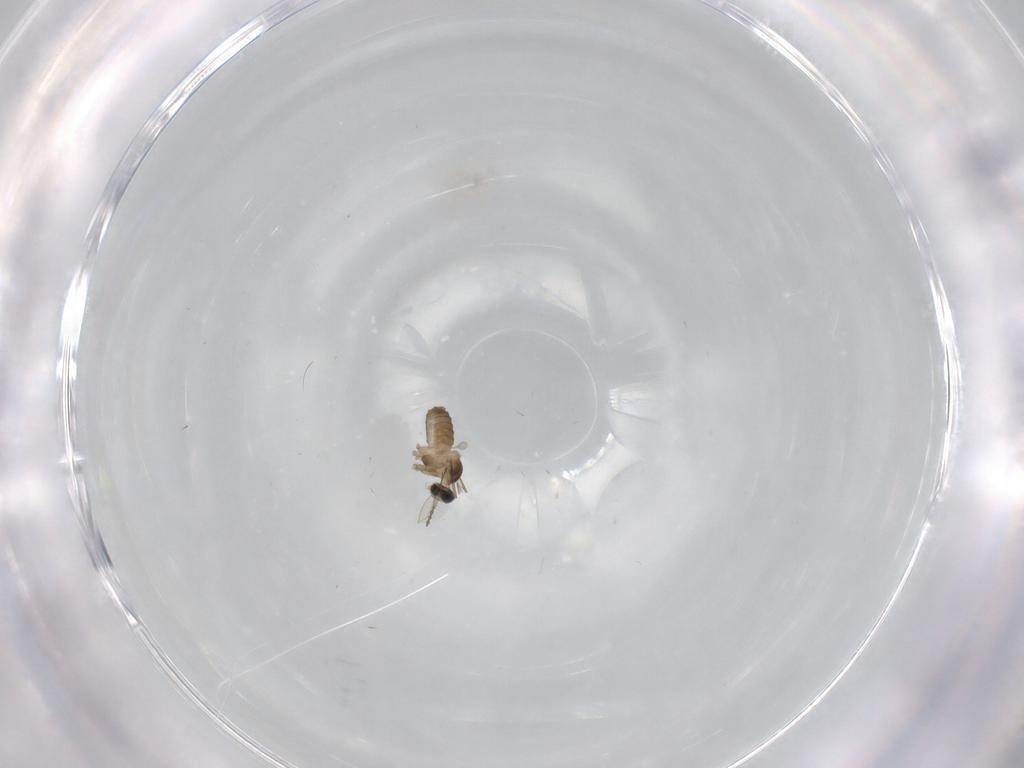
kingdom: Animalia
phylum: Arthropoda
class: Insecta
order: Diptera
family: Cecidomyiidae
